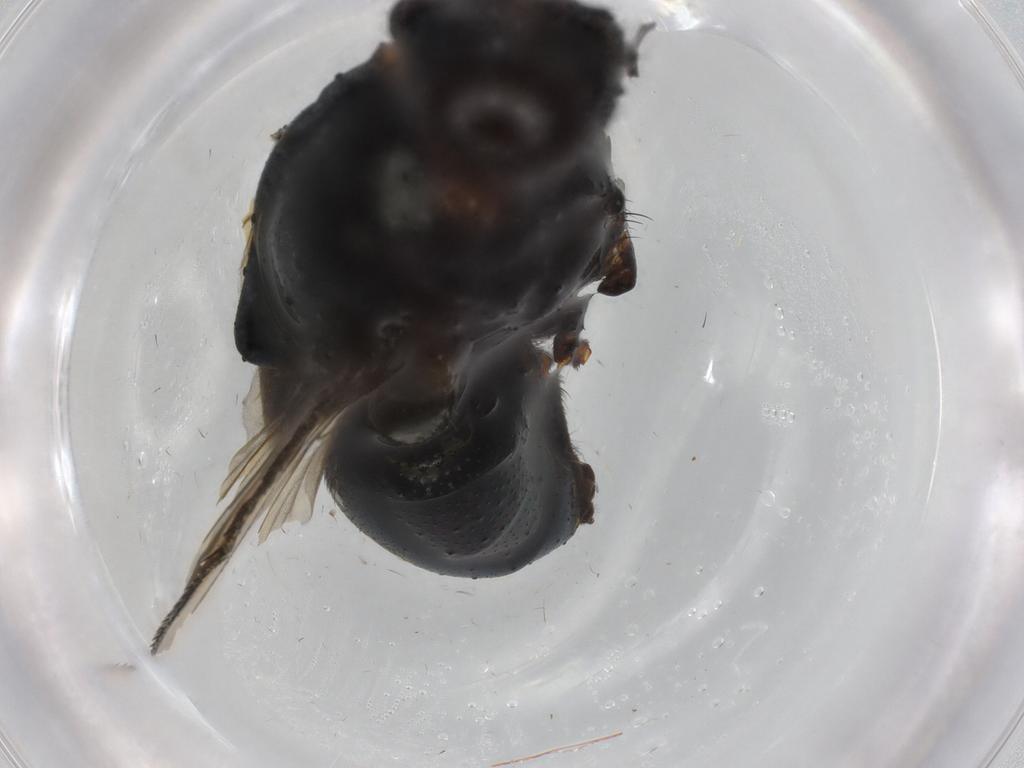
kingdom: Animalia
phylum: Arthropoda
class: Insecta
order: Diptera
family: Muscidae
